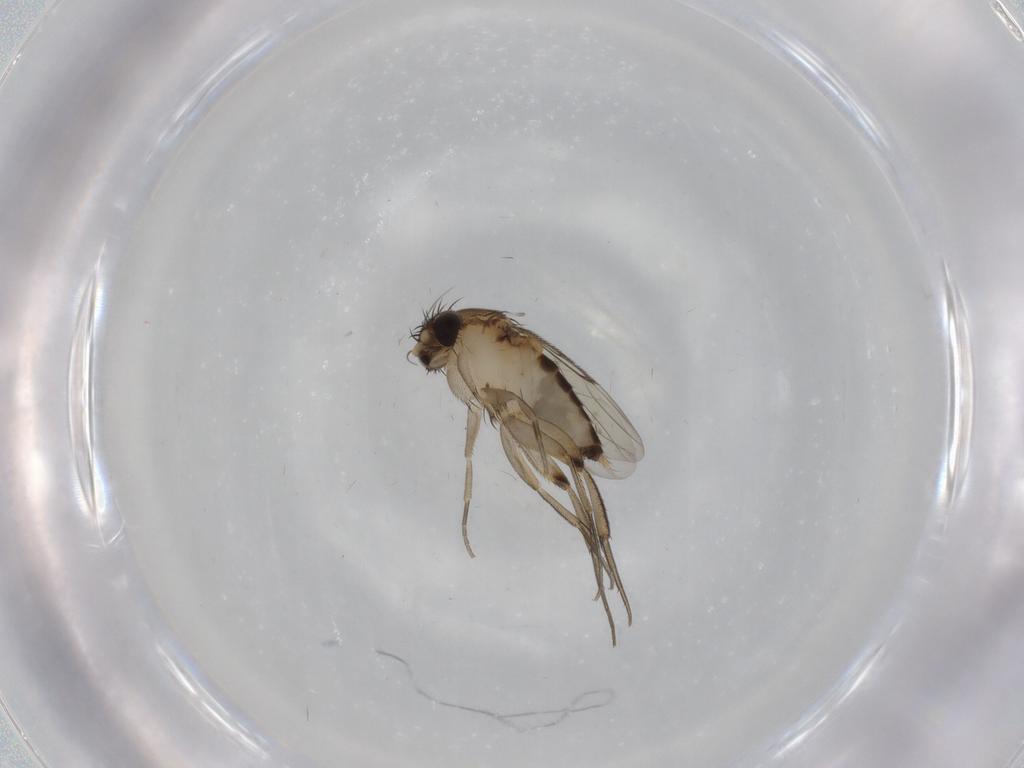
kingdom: Animalia
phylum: Arthropoda
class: Insecta
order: Diptera
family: Phoridae
